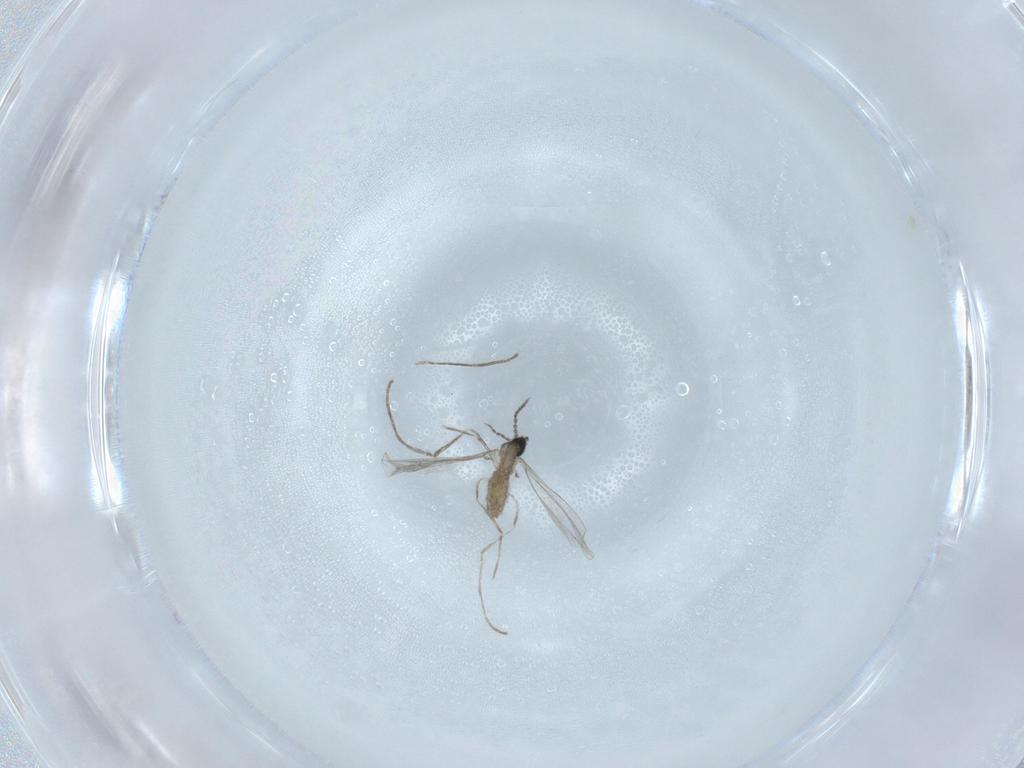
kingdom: Animalia
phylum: Arthropoda
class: Insecta
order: Diptera
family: Cecidomyiidae
